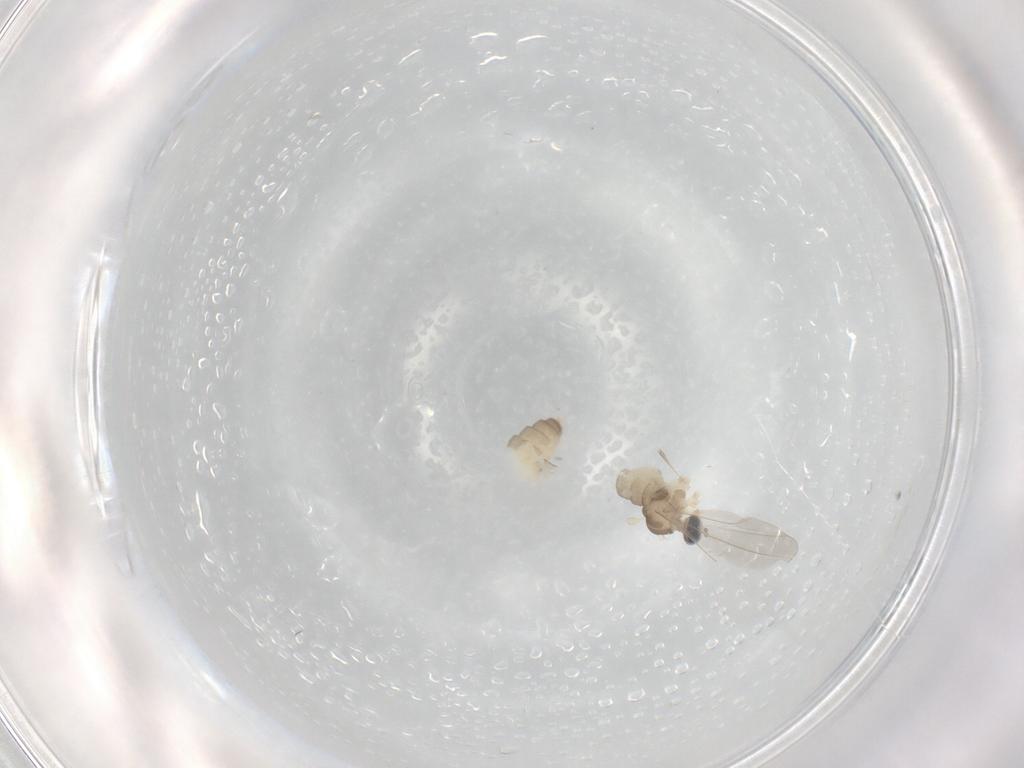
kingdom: Animalia
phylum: Arthropoda
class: Insecta
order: Diptera
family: Cecidomyiidae
